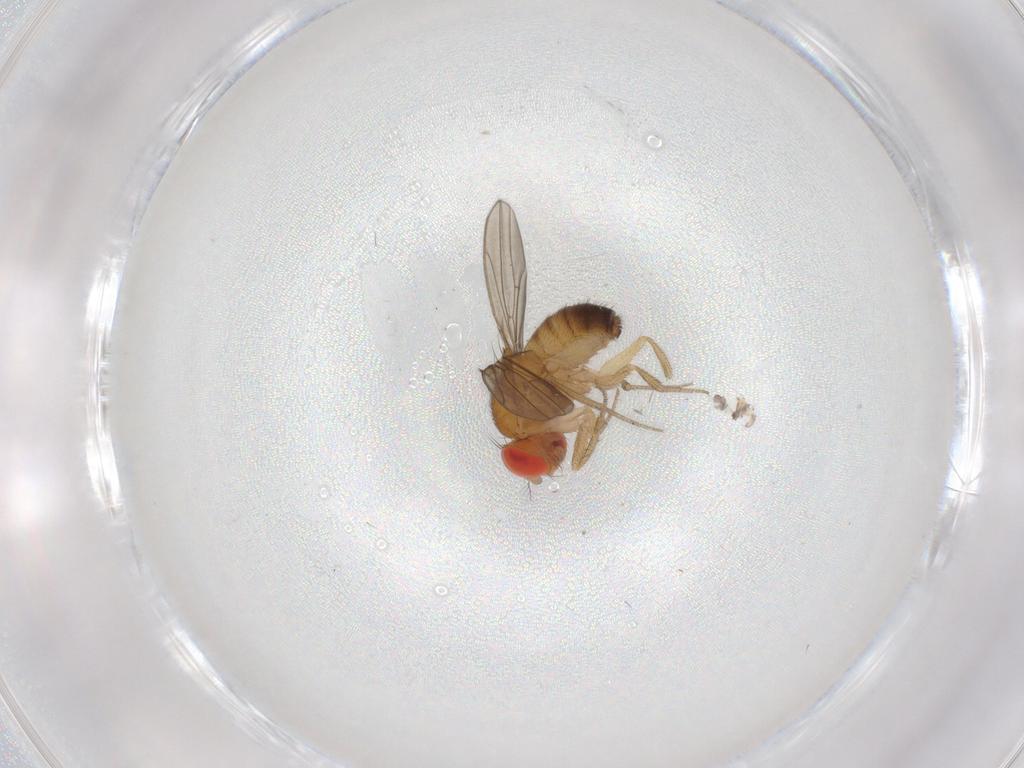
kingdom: Animalia
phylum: Arthropoda
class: Insecta
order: Diptera
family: Drosophilidae
